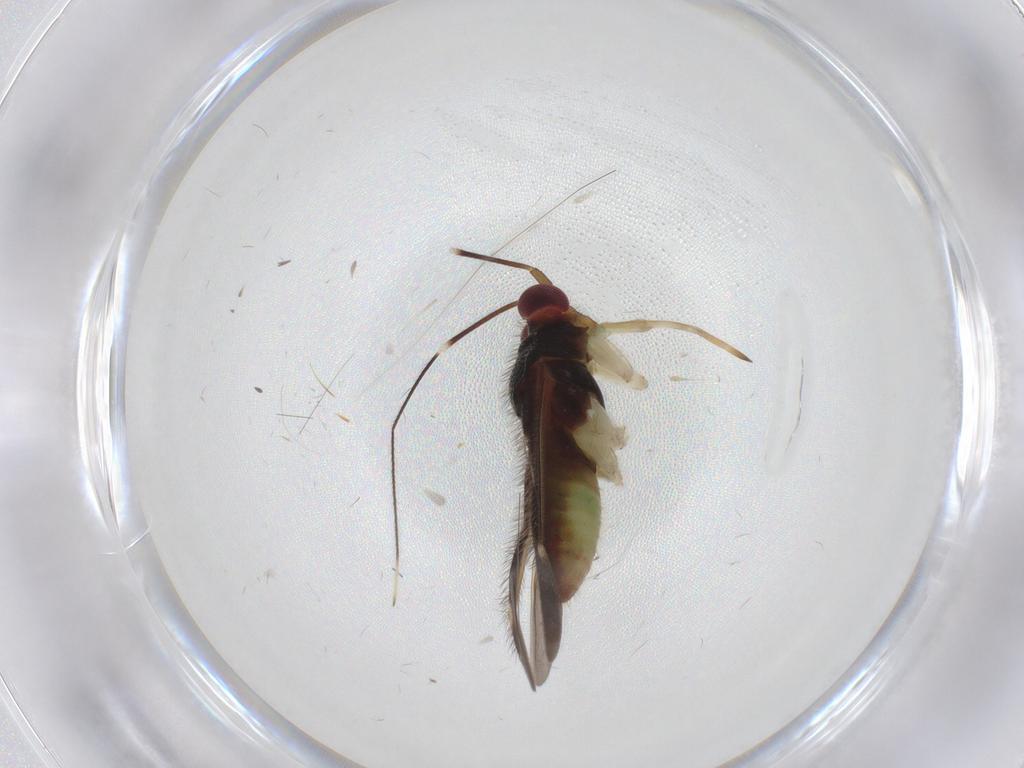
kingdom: Animalia
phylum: Arthropoda
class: Insecta
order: Hemiptera
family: Miridae
